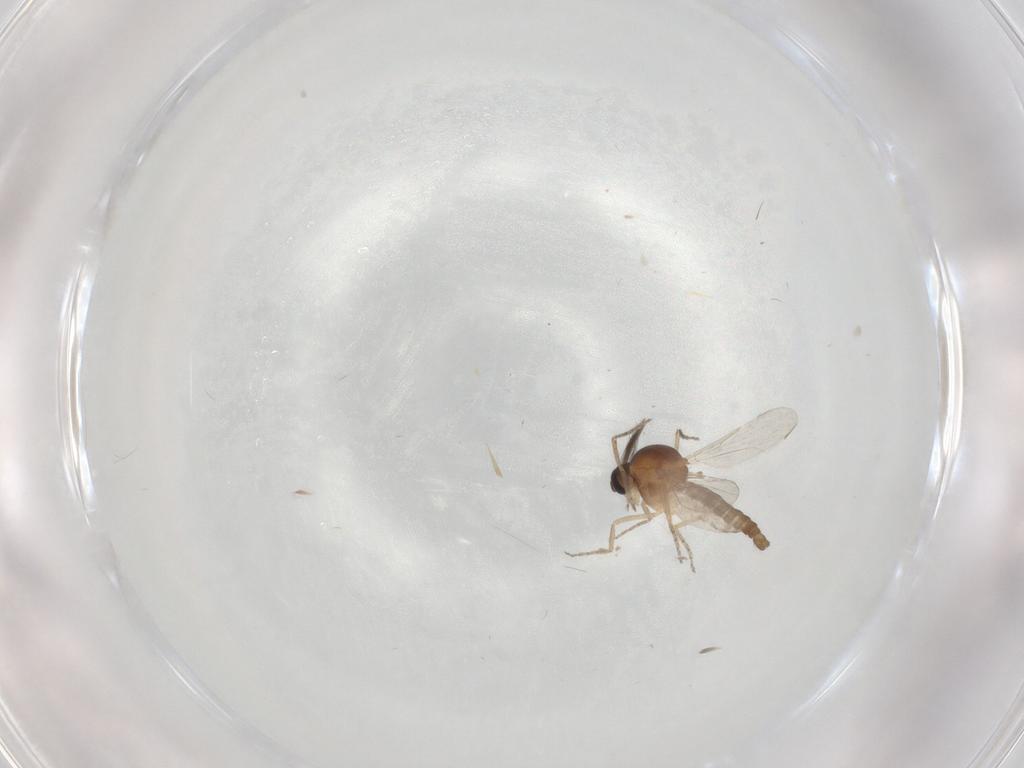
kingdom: Animalia
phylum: Arthropoda
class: Insecta
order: Diptera
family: Ceratopogonidae
